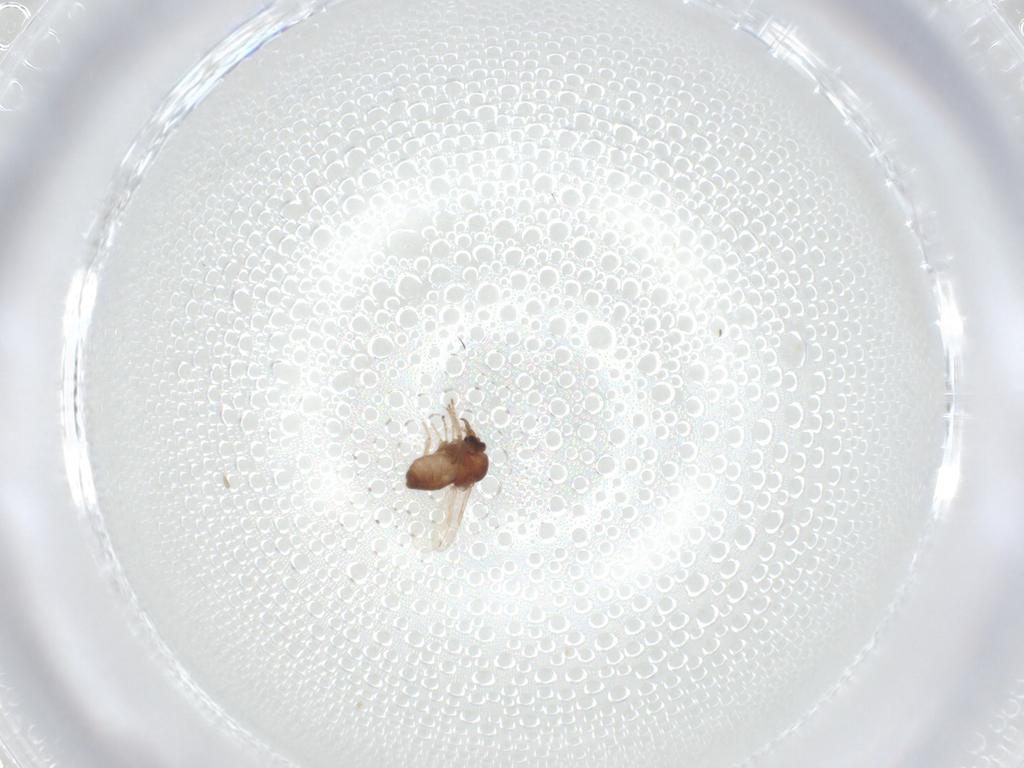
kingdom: Animalia
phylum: Arthropoda
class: Insecta
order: Diptera
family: Ceratopogonidae
